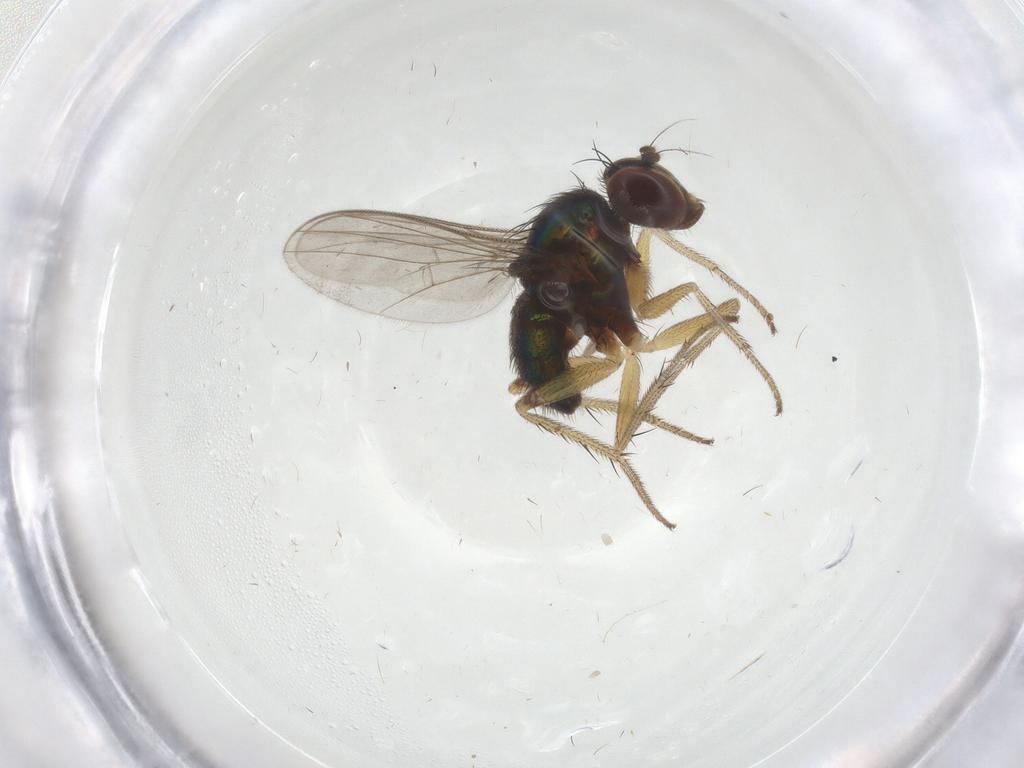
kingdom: Animalia
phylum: Arthropoda
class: Insecta
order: Diptera
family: Dolichopodidae
